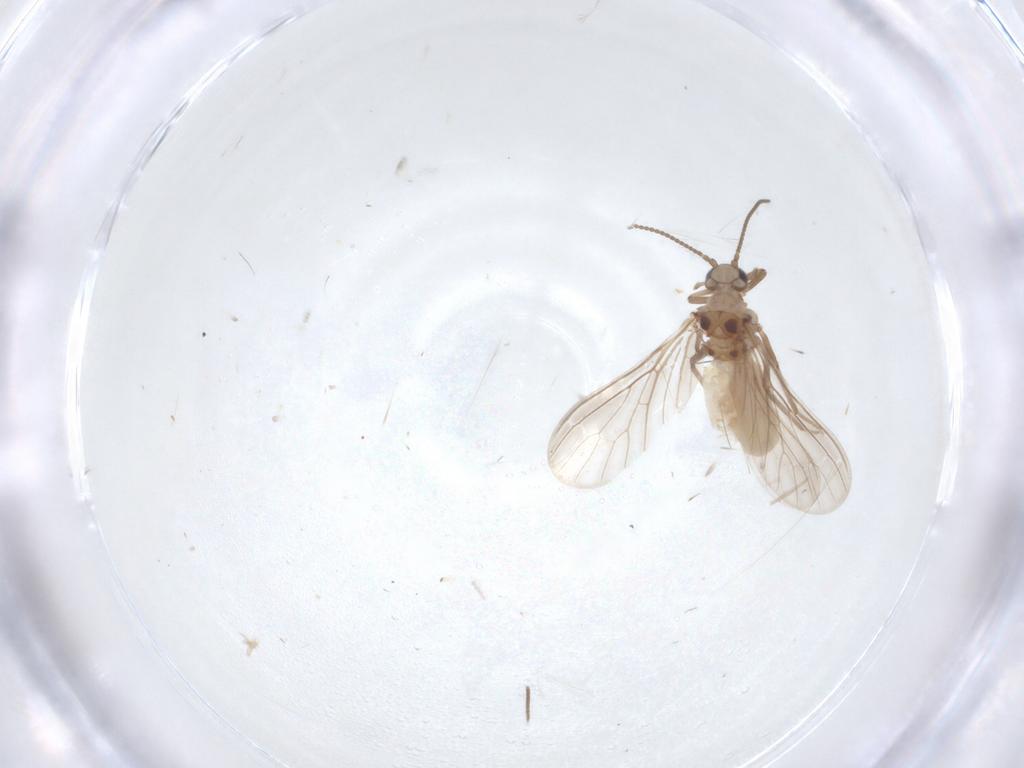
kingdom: Animalia
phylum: Arthropoda
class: Insecta
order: Neuroptera
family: Coniopterygidae
